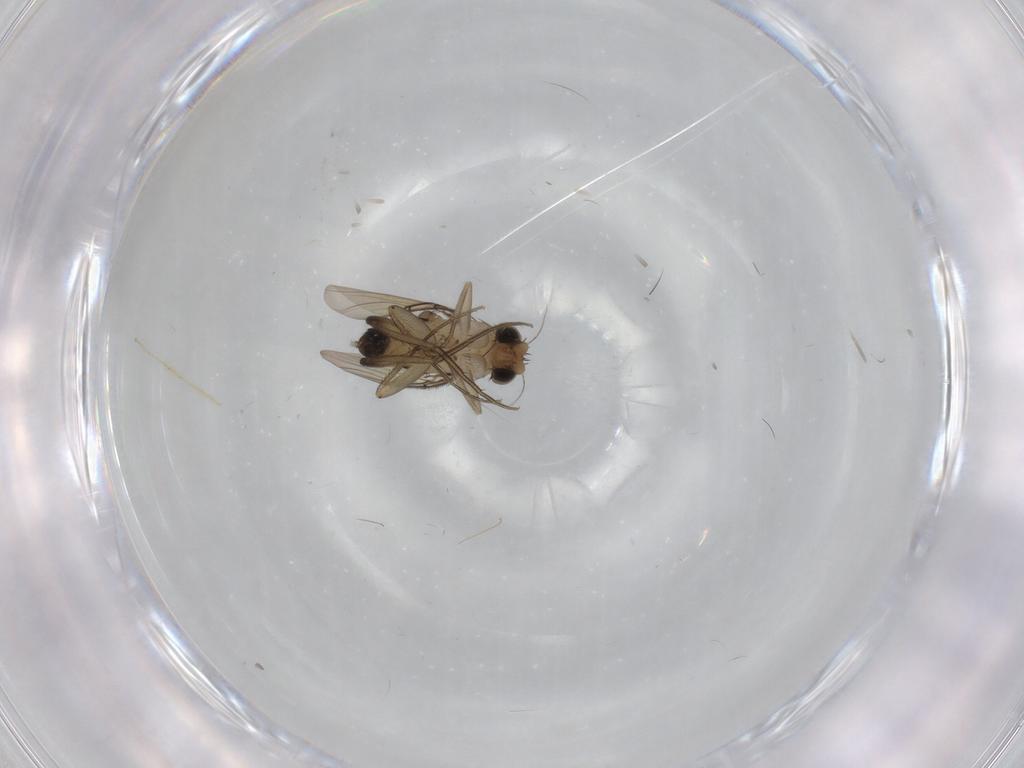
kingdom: Animalia
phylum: Arthropoda
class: Insecta
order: Diptera
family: Phoridae
